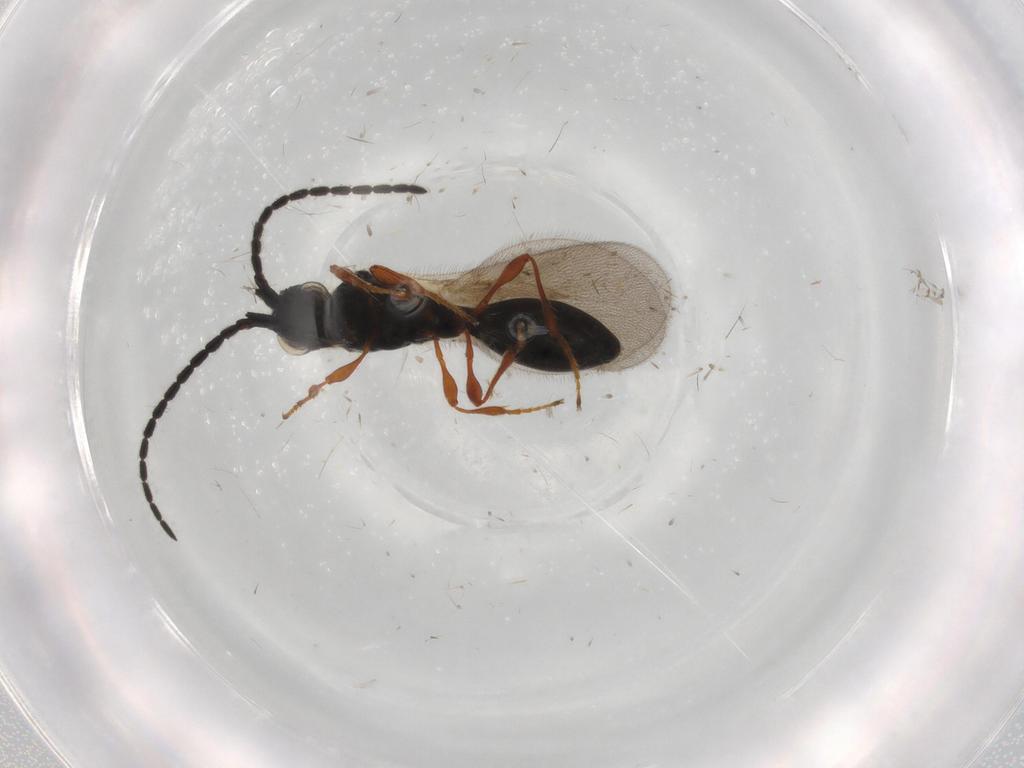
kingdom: Animalia
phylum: Arthropoda
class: Insecta
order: Hymenoptera
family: Diapriidae
